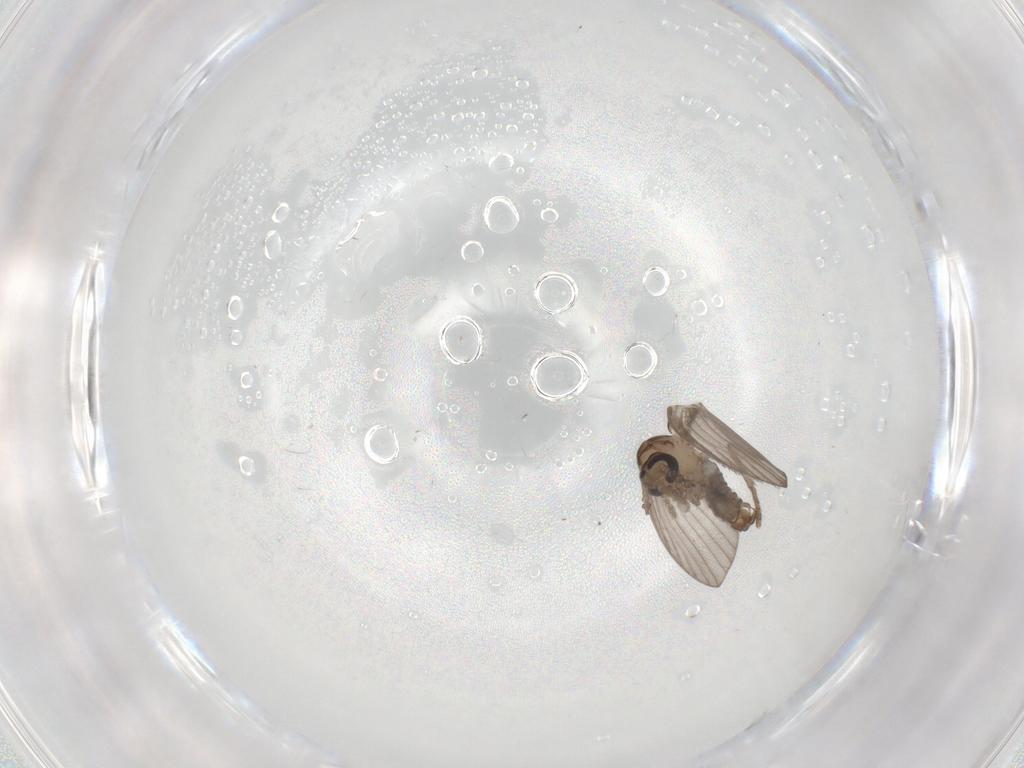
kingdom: Animalia
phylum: Arthropoda
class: Insecta
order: Diptera
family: Psychodidae
